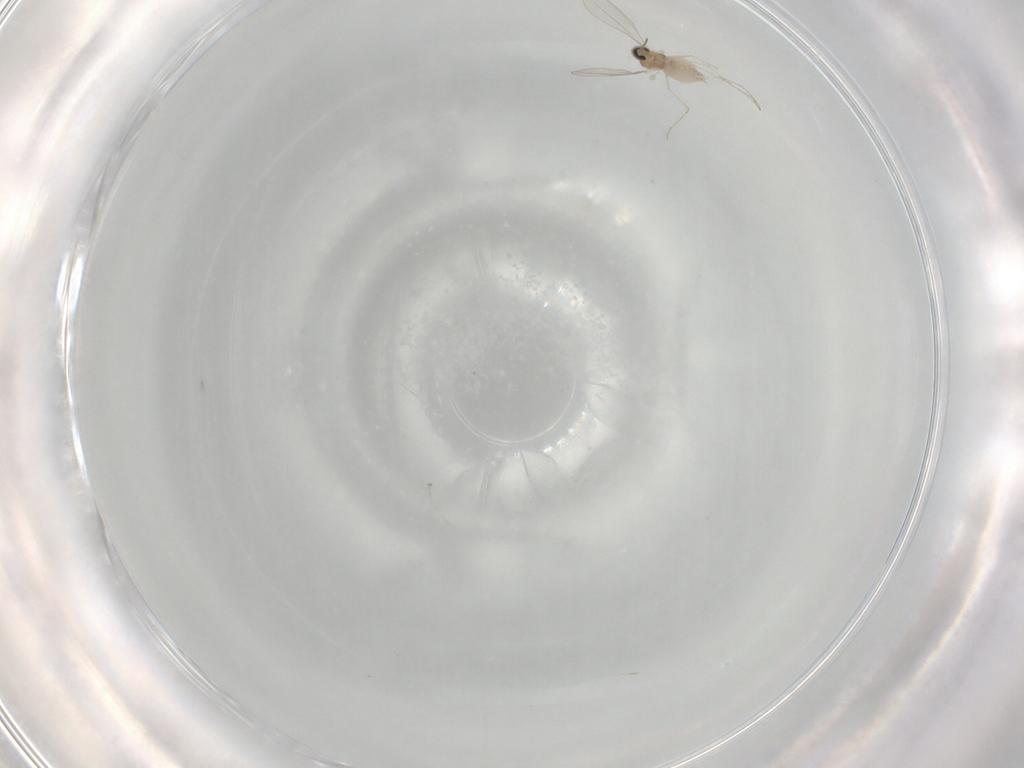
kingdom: Animalia
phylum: Arthropoda
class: Insecta
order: Diptera
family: Cecidomyiidae
